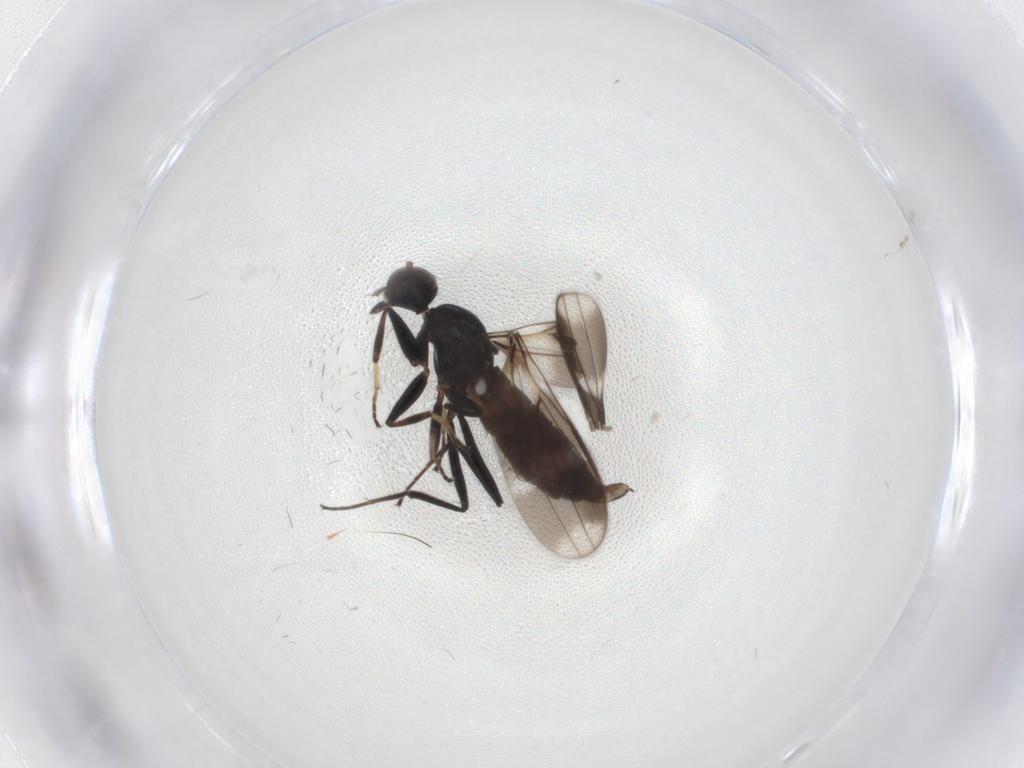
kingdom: Animalia
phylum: Arthropoda
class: Insecta
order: Diptera
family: Hybotidae
